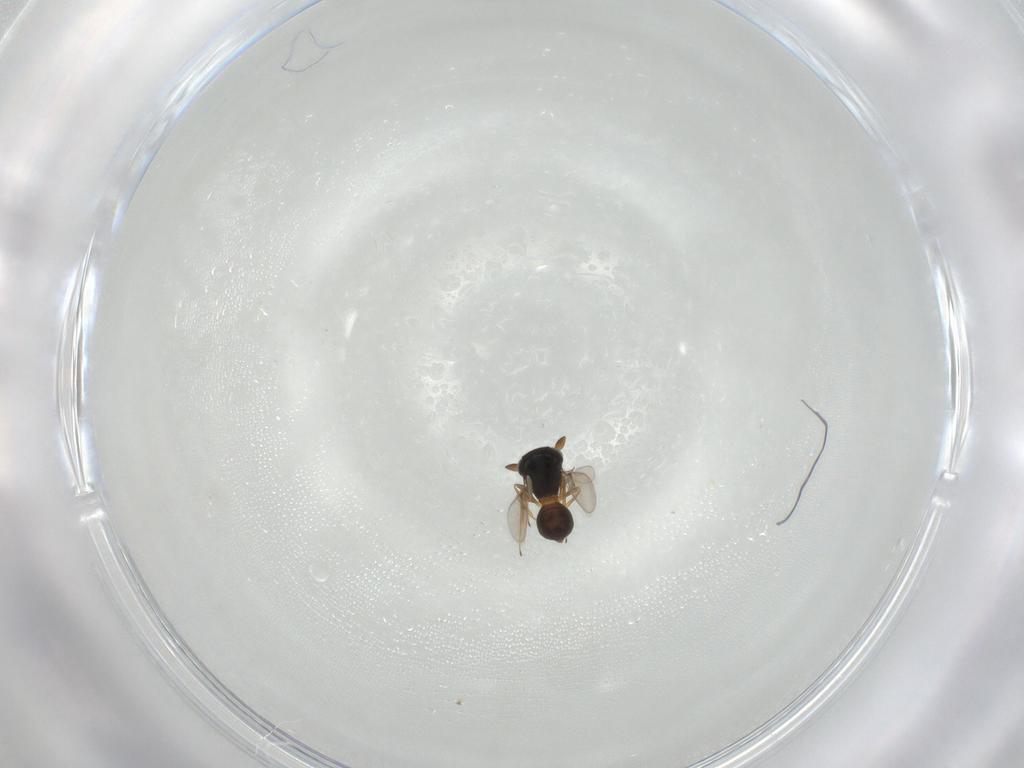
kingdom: Animalia
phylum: Arthropoda
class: Insecta
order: Hymenoptera
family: Scelionidae
